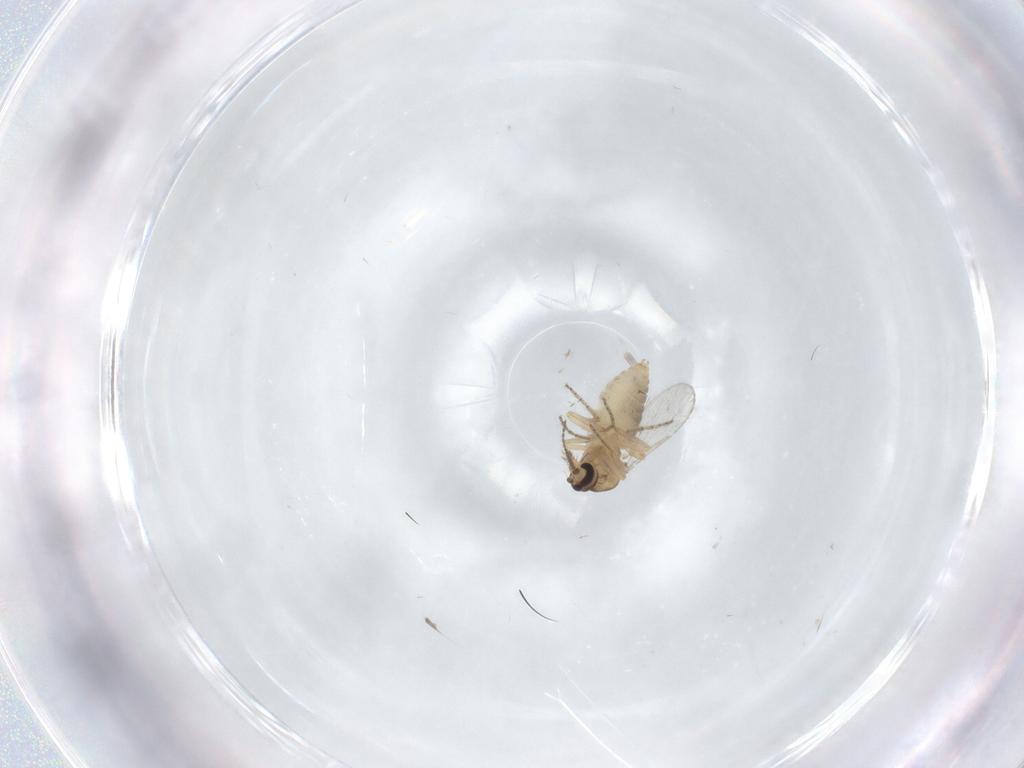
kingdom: Animalia
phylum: Arthropoda
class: Insecta
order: Diptera
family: Ceratopogonidae
